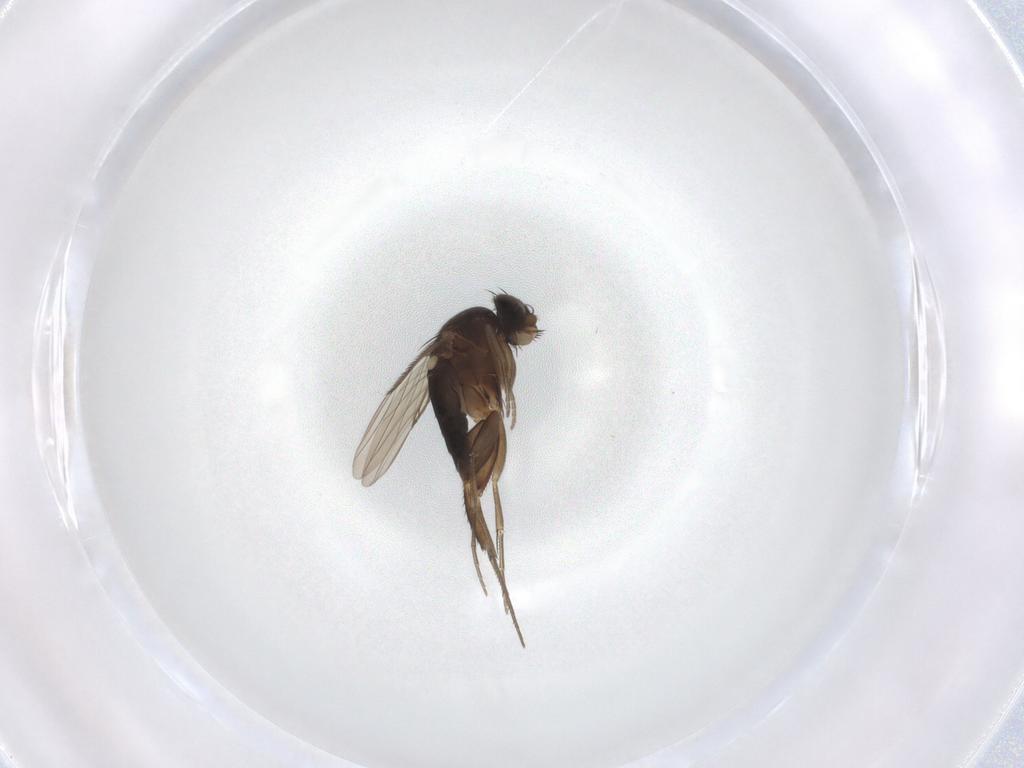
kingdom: Animalia
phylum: Arthropoda
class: Insecta
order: Diptera
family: Phoridae
